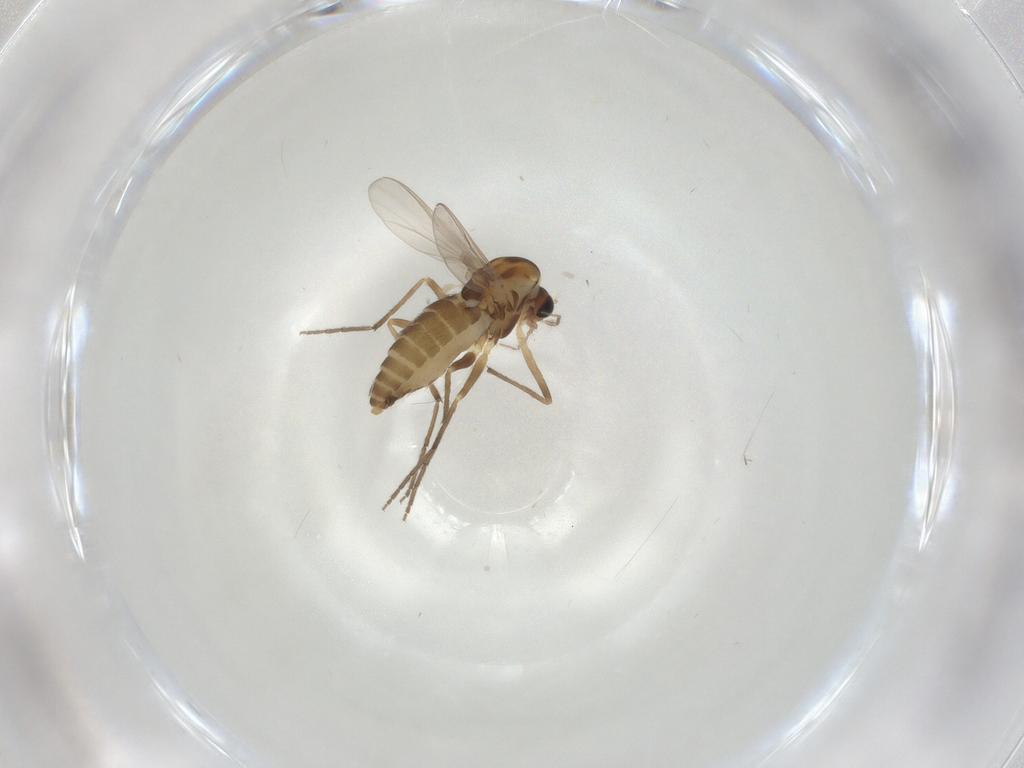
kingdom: Animalia
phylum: Arthropoda
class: Insecta
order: Diptera
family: Chironomidae
